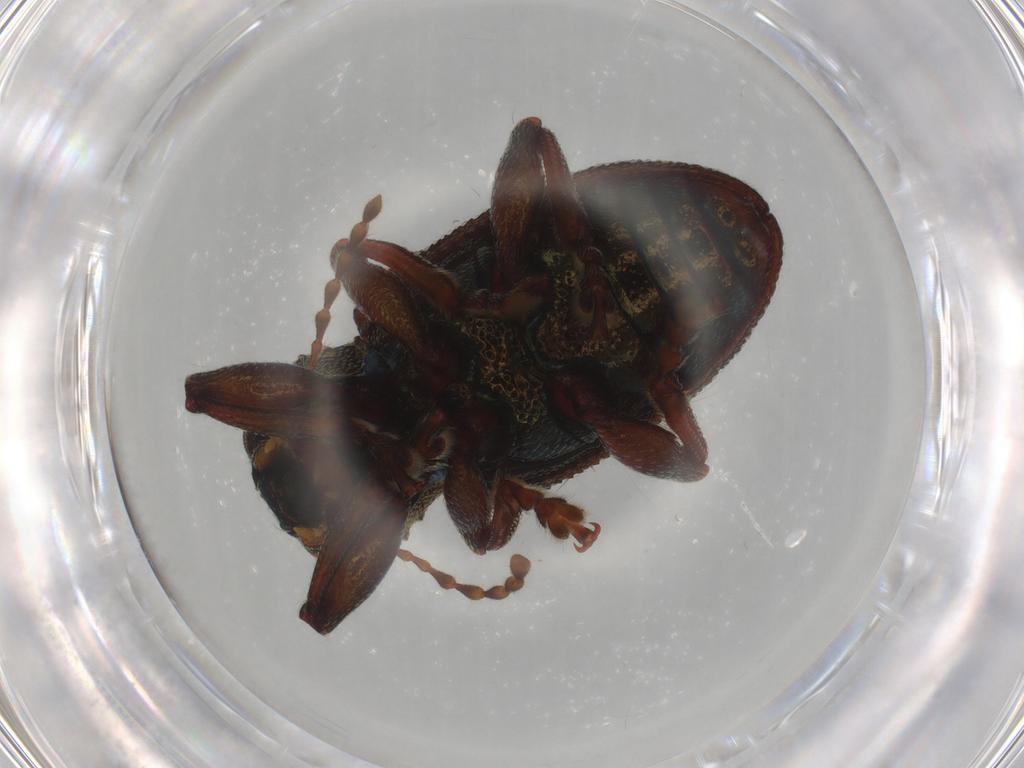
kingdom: Animalia
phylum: Arthropoda
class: Insecta
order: Coleoptera
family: Chrysomelidae
